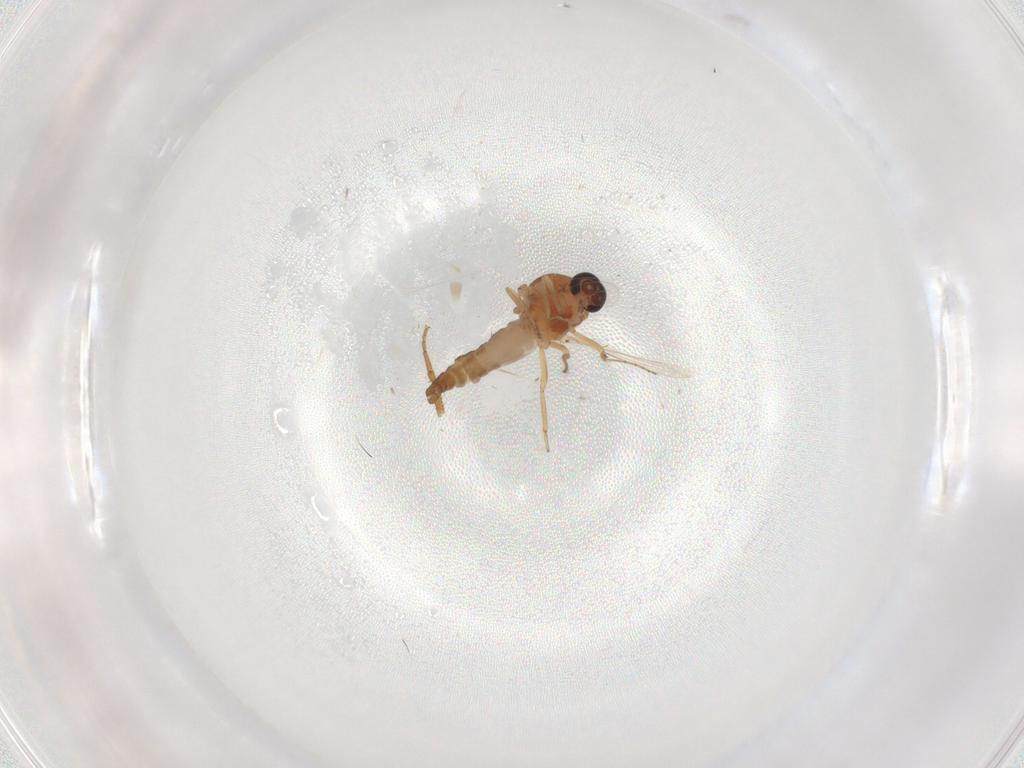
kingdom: Animalia
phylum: Arthropoda
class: Insecta
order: Diptera
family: Ceratopogonidae
